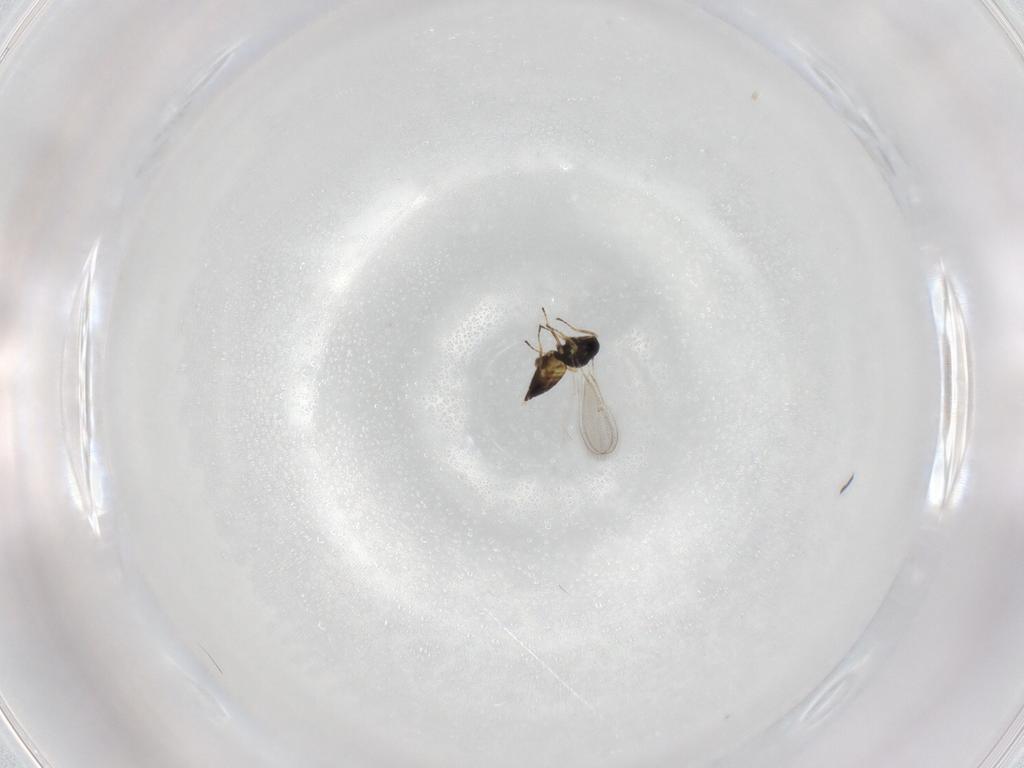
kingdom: Animalia
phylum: Arthropoda
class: Insecta
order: Hymenoptera
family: Eulophidae
